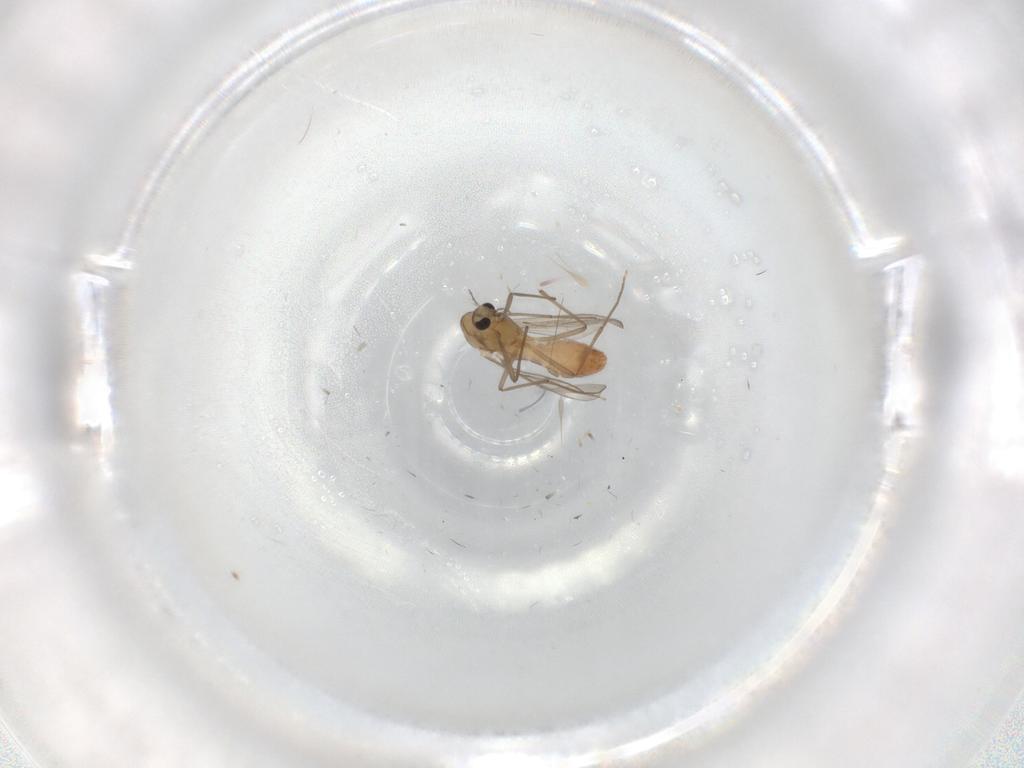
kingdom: Animalia
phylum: Arthropoda
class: Insecta
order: Diptera
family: Chironomidae
